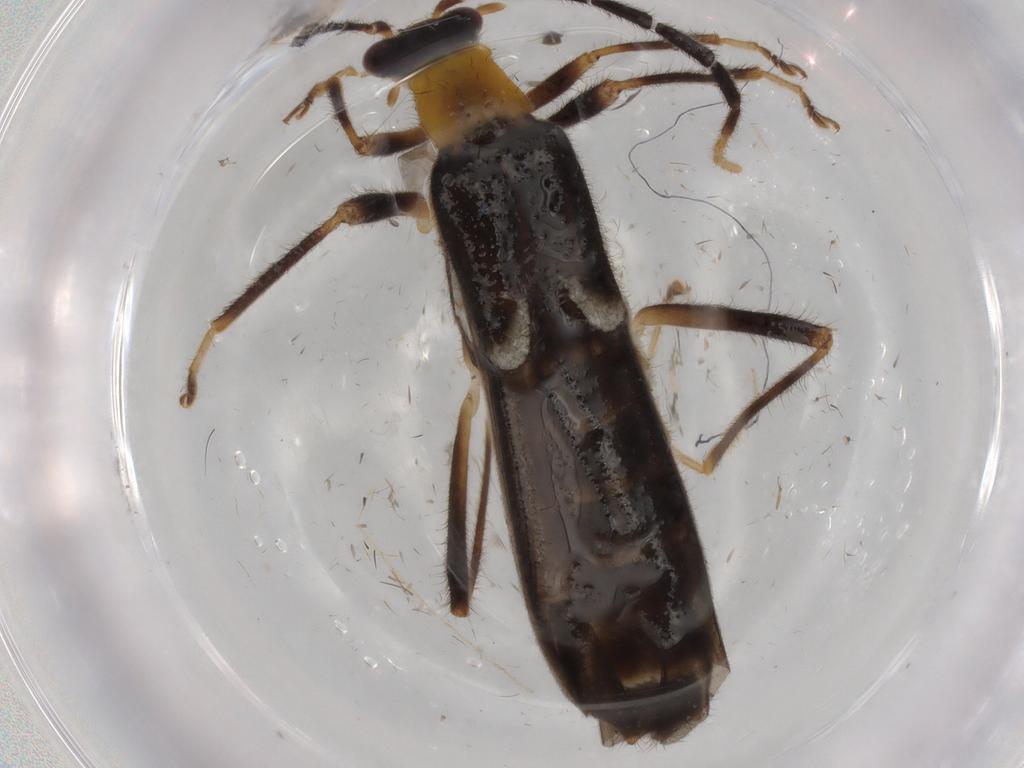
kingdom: Animalia
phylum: Arthropoda
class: Insecta
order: Coleoptera
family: Cantharidae
